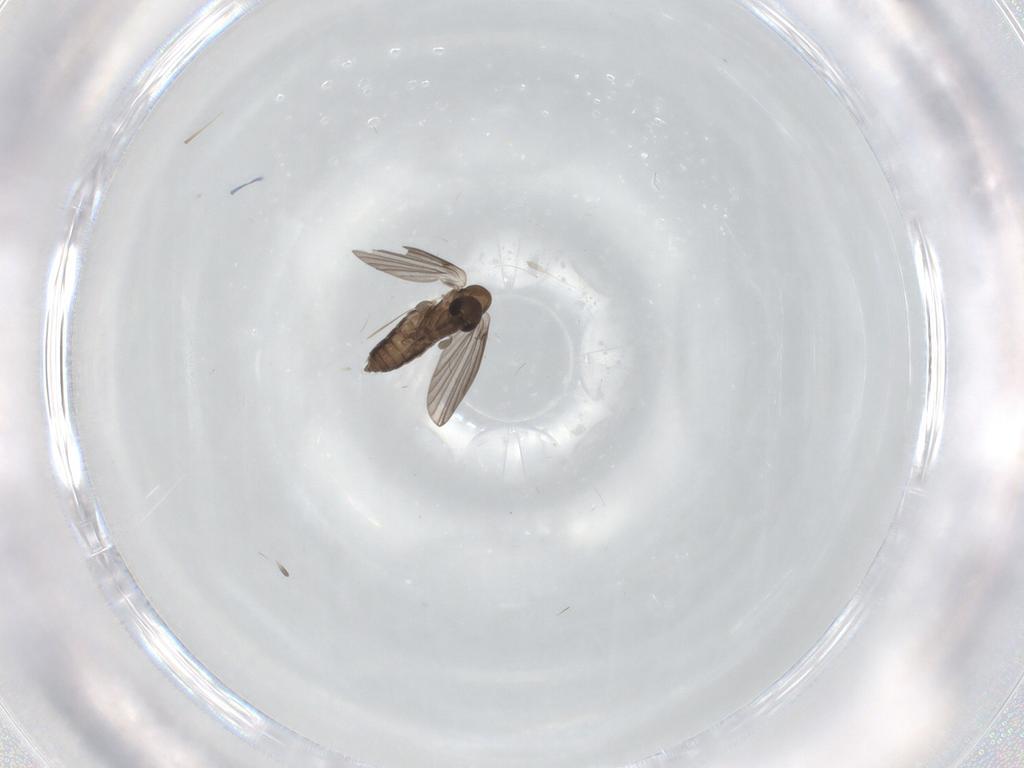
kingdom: Animalia
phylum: Arthropoda
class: Insecta
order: Diptera
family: Limoniidae
